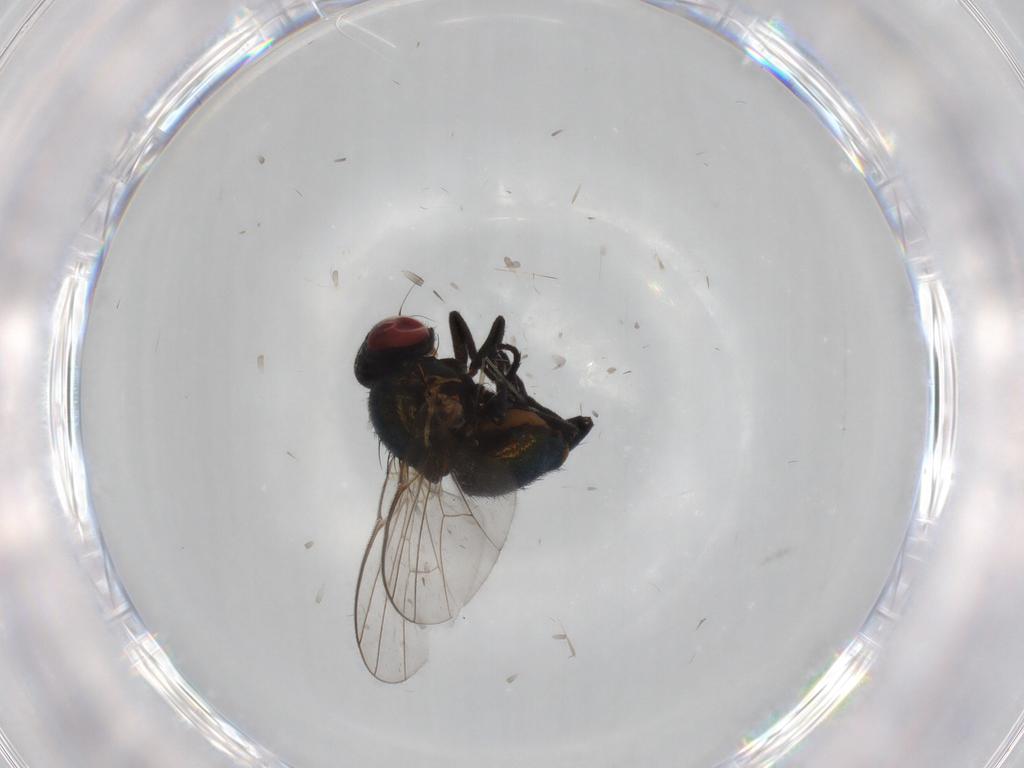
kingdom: Animalia
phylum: Arthropoda
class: Insecta
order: Diptera
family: Agromyzidae
